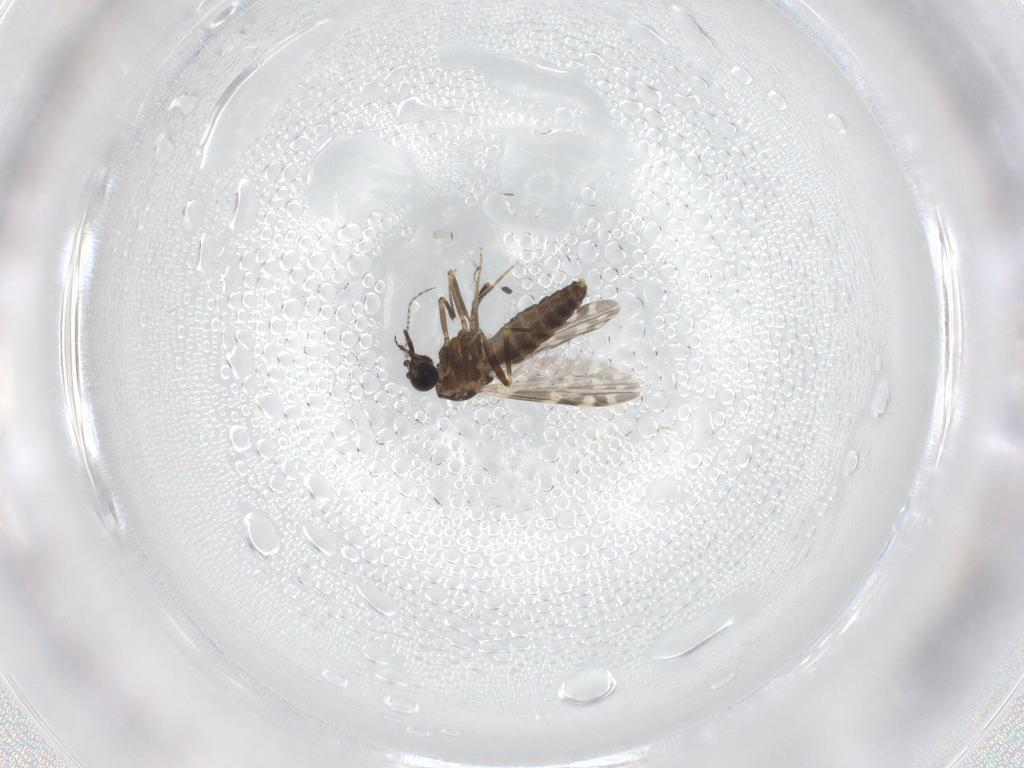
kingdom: Animalia
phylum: Arthropoda
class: Insecta
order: Diptera
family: Ceratopogonidae
